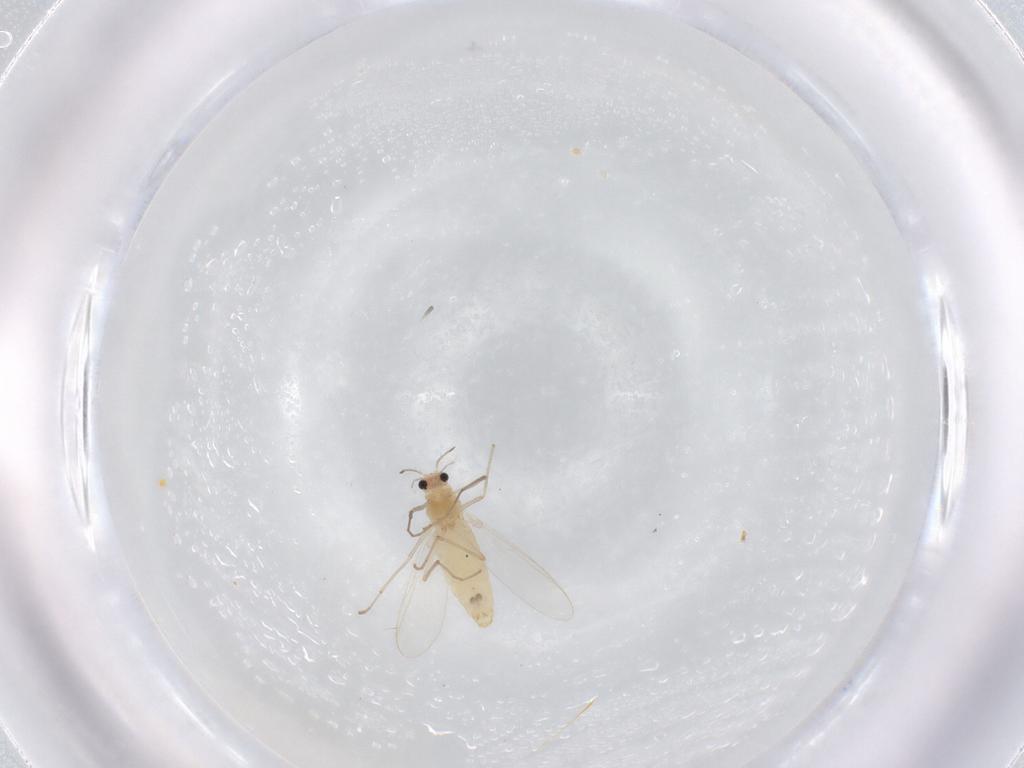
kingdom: Animalia
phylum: Arthropoda
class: Insecta
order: Diptera
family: Chironomidae
